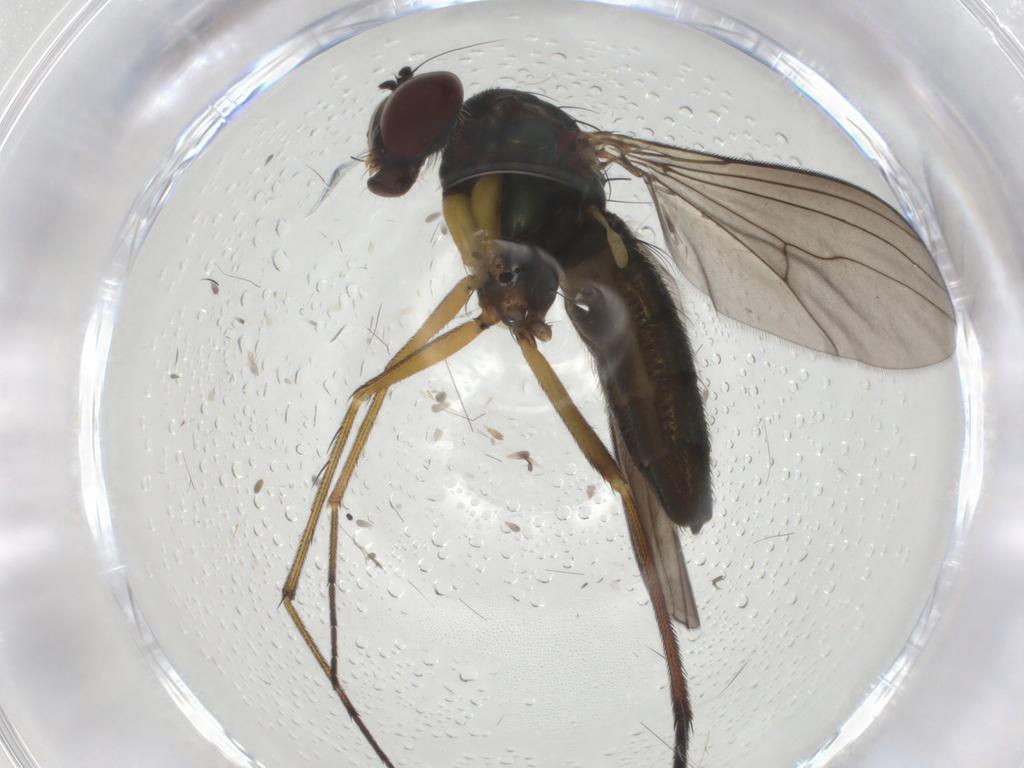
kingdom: Animalia
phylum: Arthropoda
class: Insecta
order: Diptera
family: Dolichopodidae
